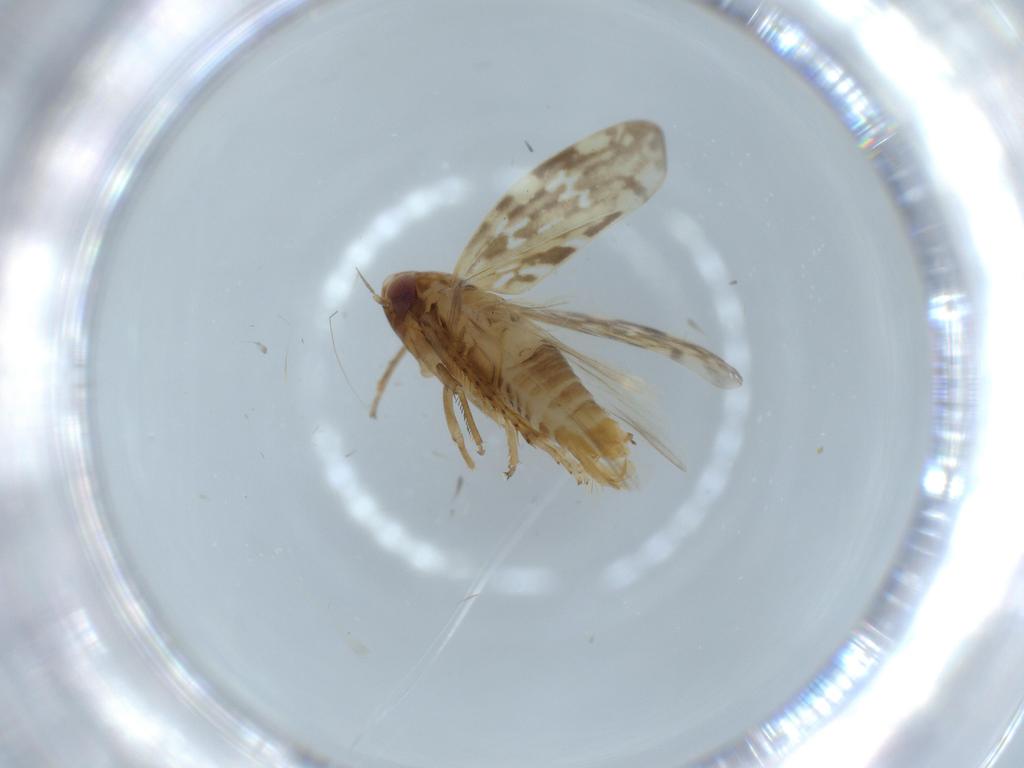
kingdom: Animalia
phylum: Arthropoda
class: Insecta
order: Hemiptera
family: Cicadellidae
